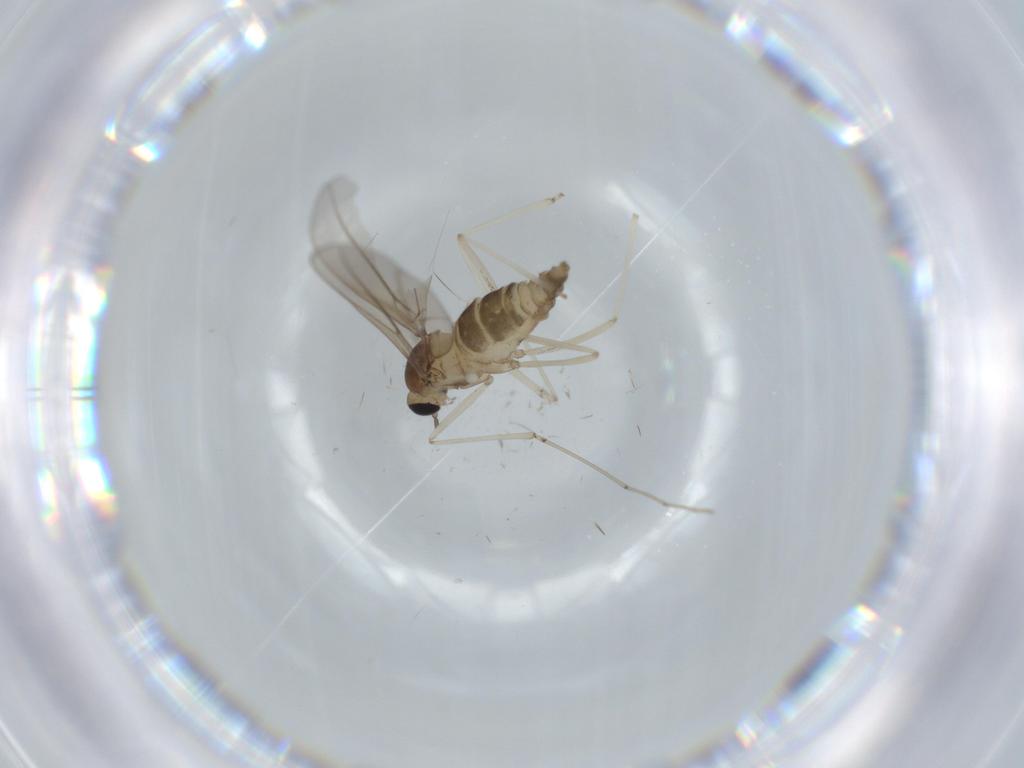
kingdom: Animalia
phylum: Arthropoda
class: Insecta
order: Diptera
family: Cecidomyiidae
